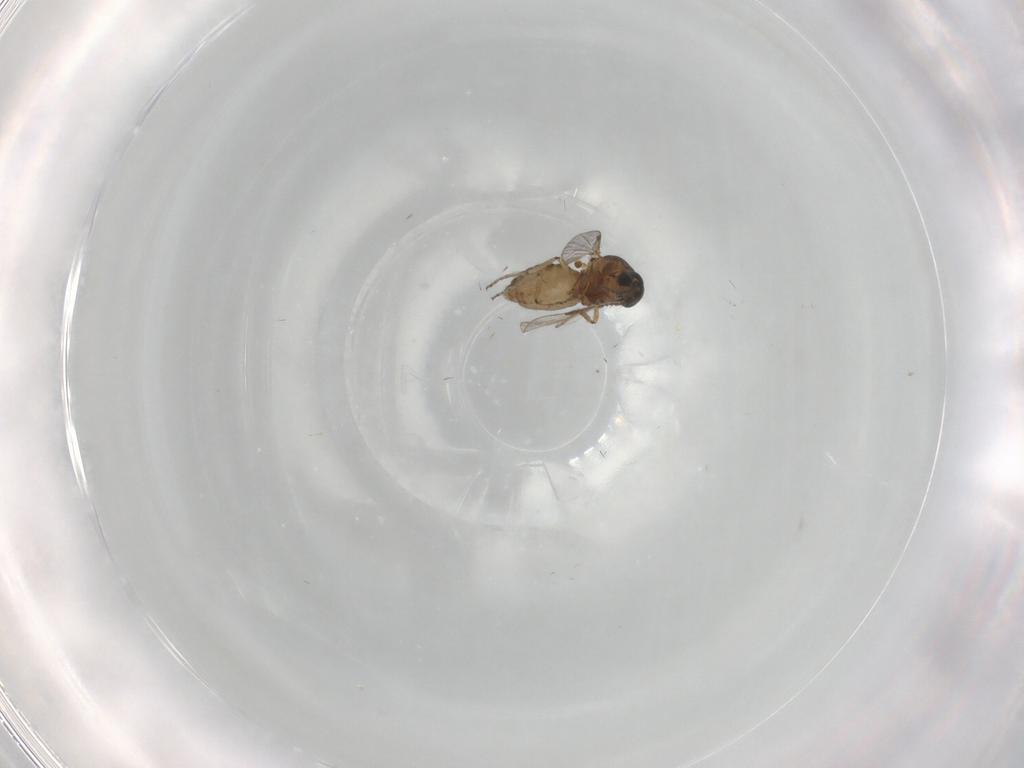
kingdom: Animalia
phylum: Arthropoda
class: Insecta
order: Diptera
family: Ceratopogonidae
